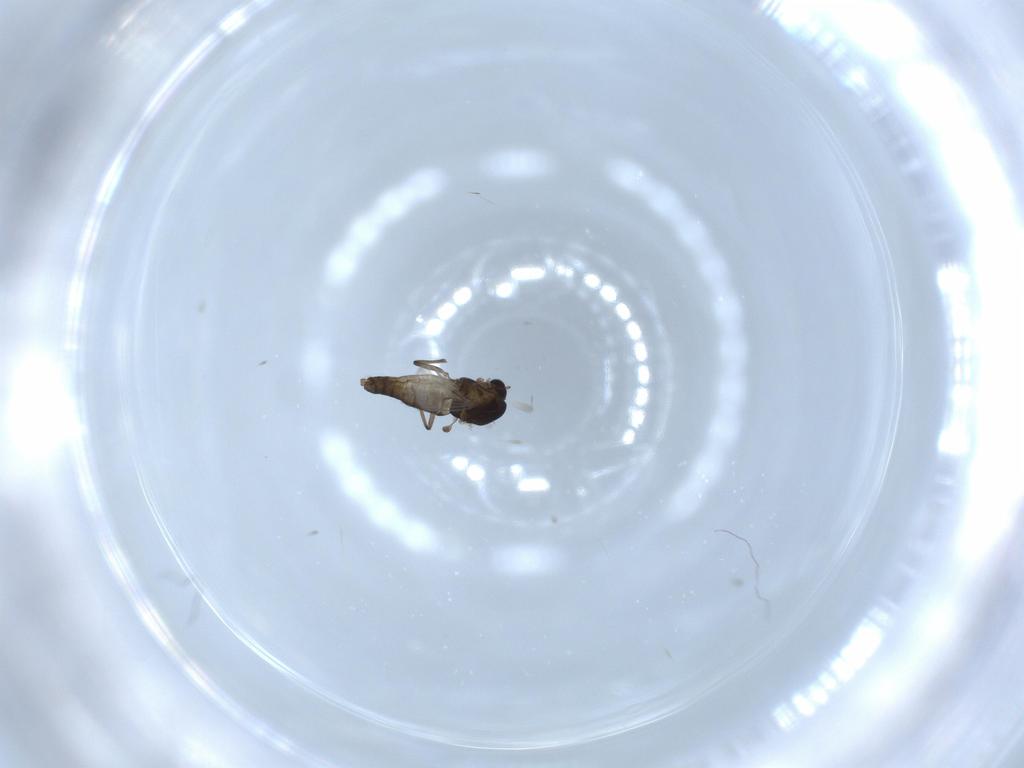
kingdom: Animalia
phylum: Arthropoda
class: Insecta
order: Diptera
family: Chironomidae
